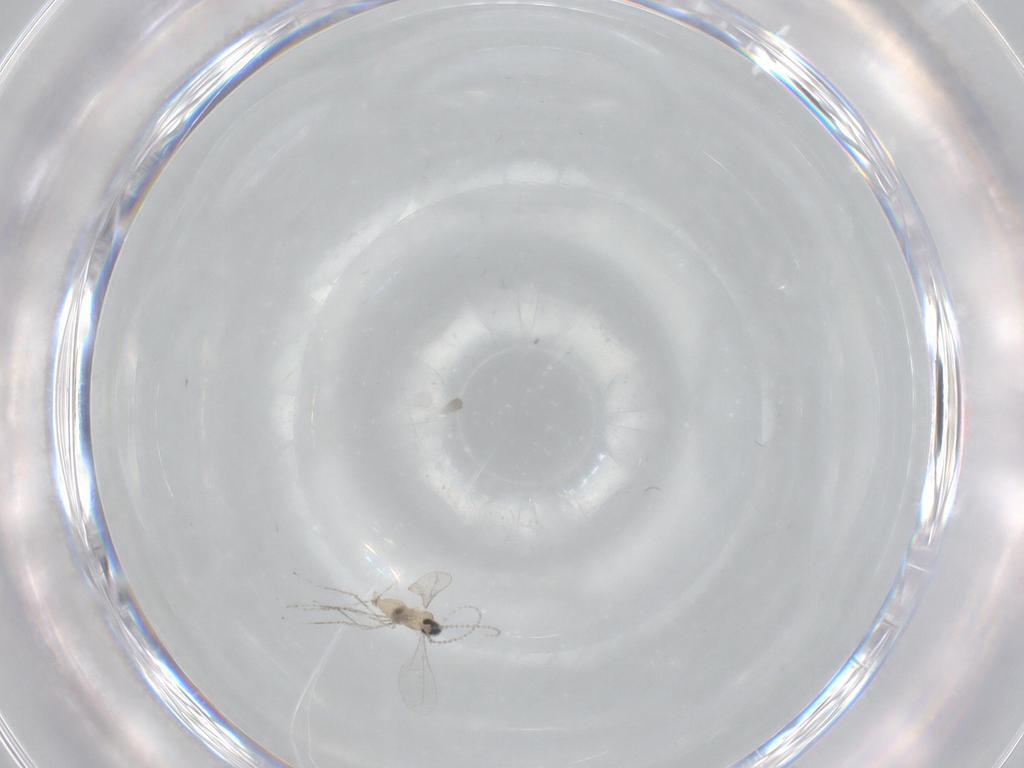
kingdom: Animalia
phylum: Arthropoda
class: Insecta
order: Diptera
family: Cecidomyiidae
